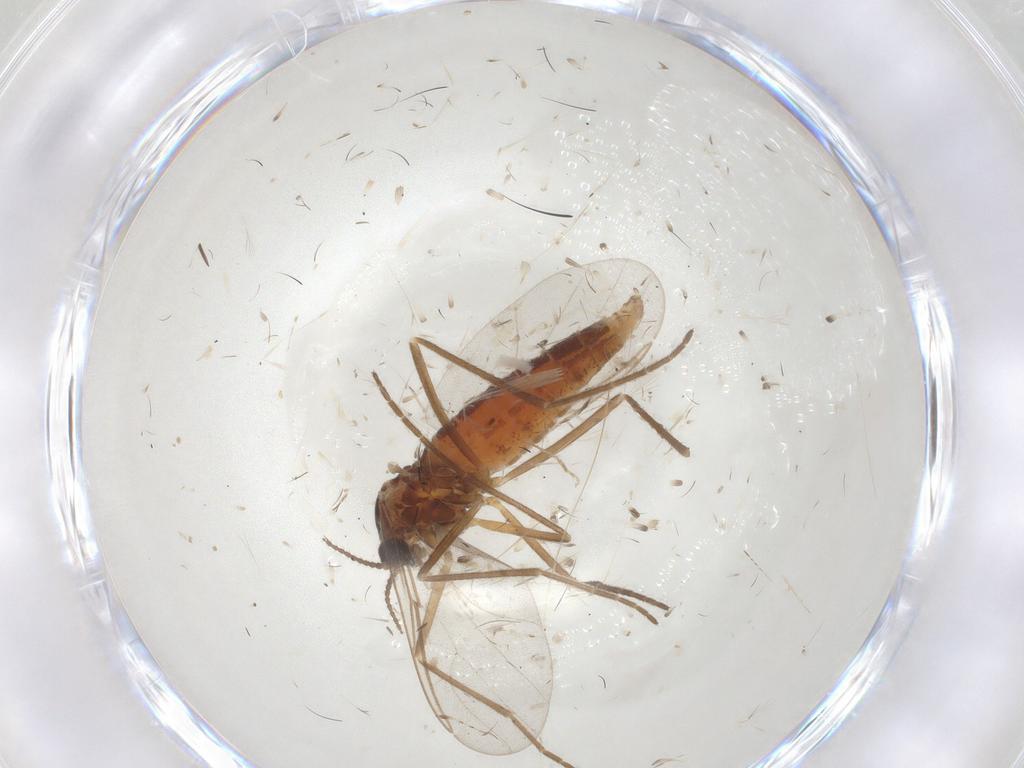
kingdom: Animalia
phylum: Arthropoda
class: Insecta
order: Diptera
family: Cecidomyiidae
